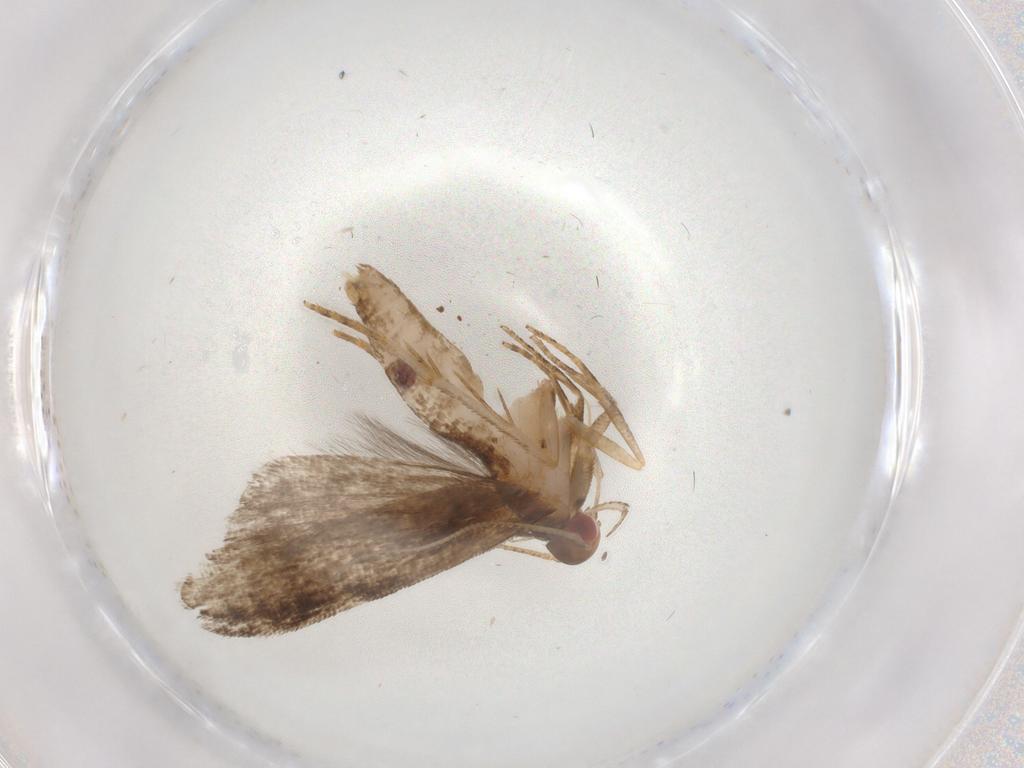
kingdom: Animalia
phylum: Arthropoda
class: Insecta
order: Lepidoptera
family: Gelechiidae
